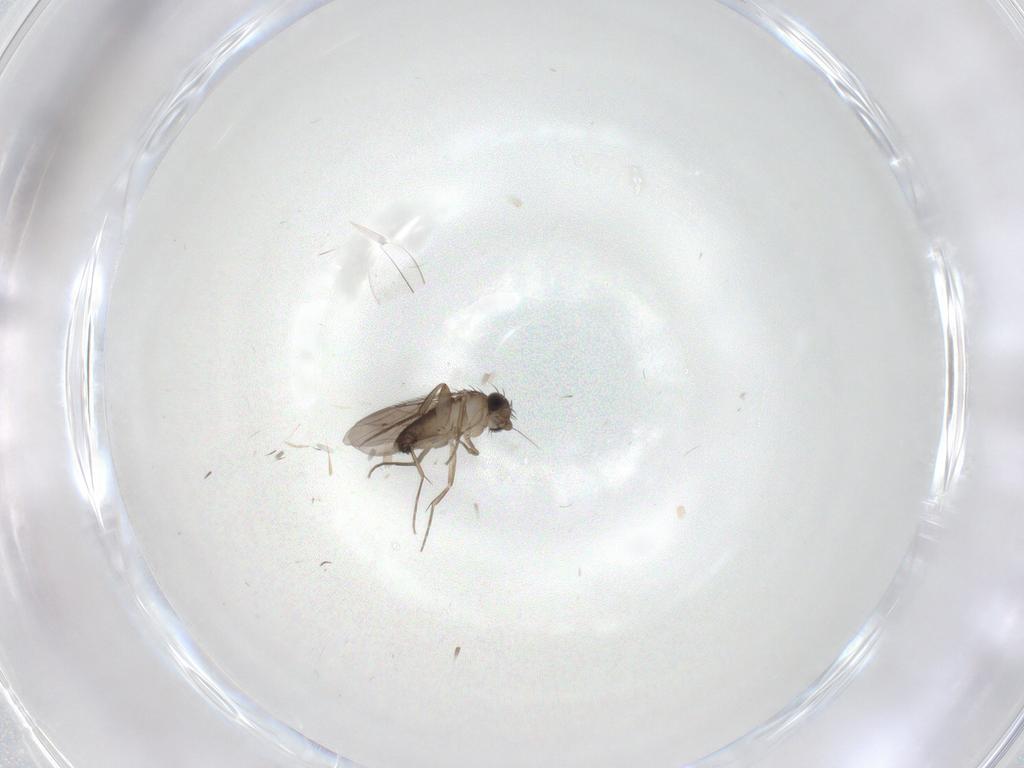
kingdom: Animalia
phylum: Arthropoda
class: Insecta
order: Diptera
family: Phoridae
